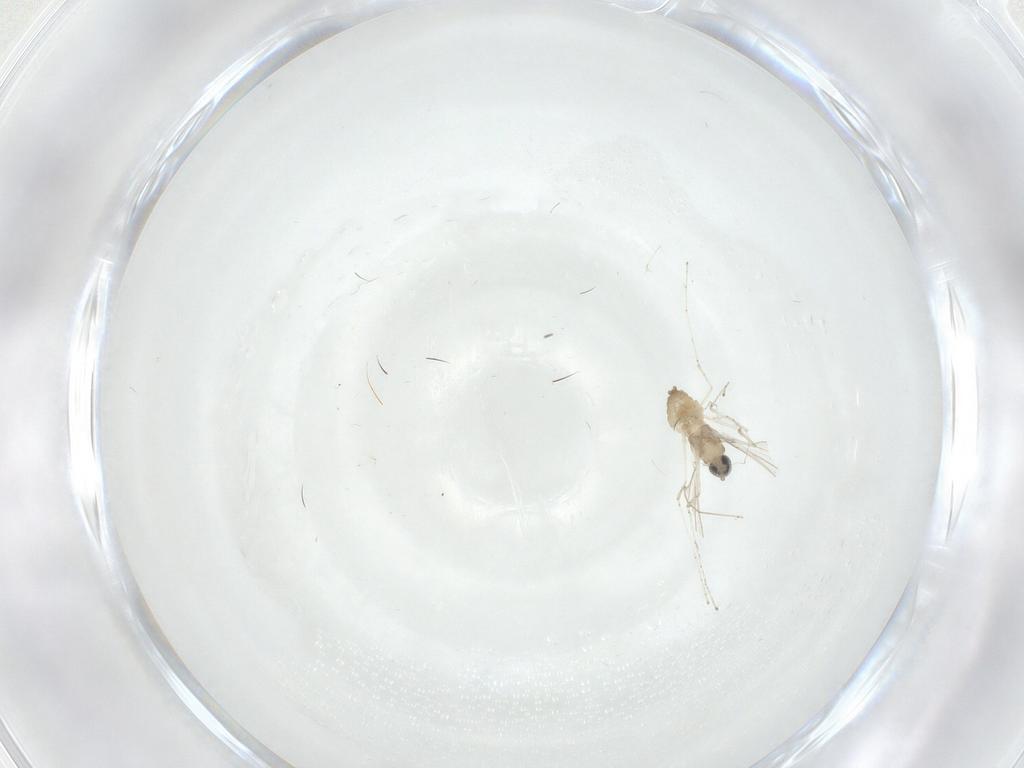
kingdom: Animalia
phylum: Arthropoda
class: Insecta
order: Diptera
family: Cecidomyiidae
